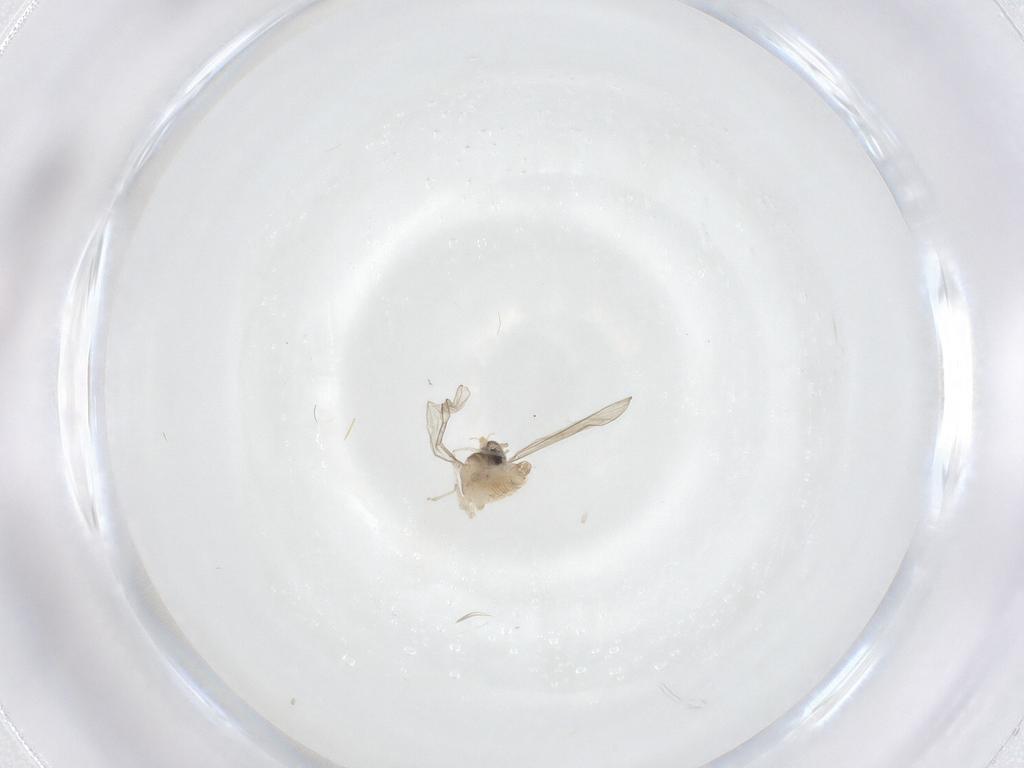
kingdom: Animalia
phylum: Arthropoda
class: Insecta
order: Diptera
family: Cecidomyiidae
